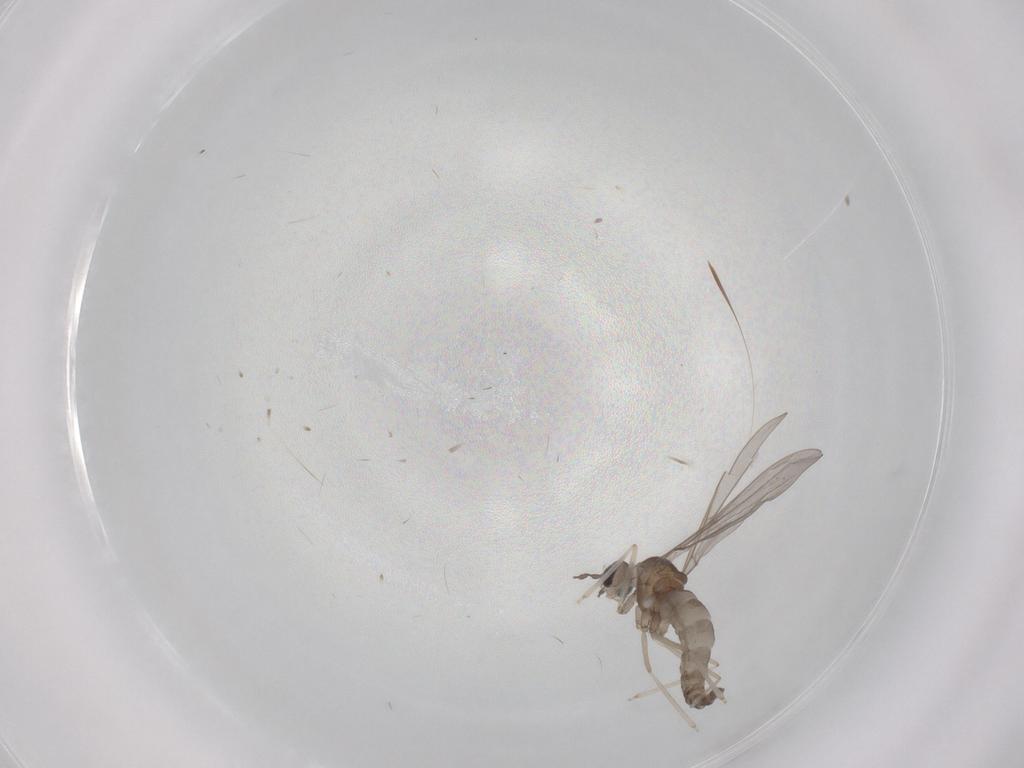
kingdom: Animalia
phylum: Arthropoda
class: Insecta
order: Diptera
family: Cecidomyiidae
